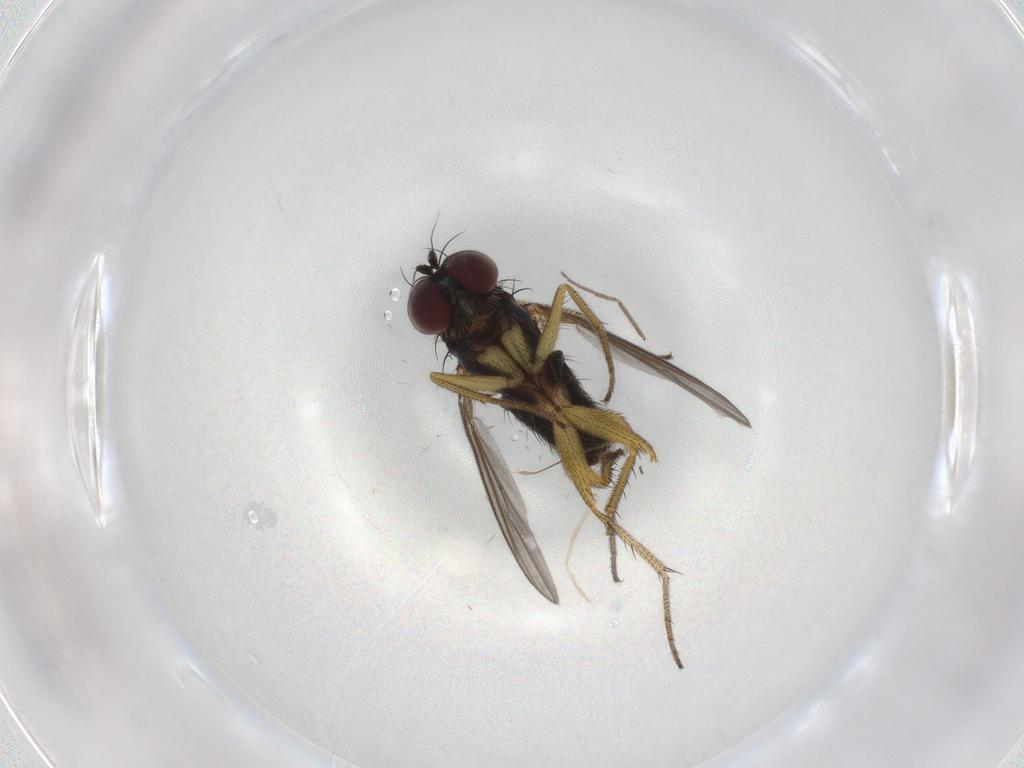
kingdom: Animalia
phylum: Arthropoda
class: Insecta
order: Diptera
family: Chironomidae
